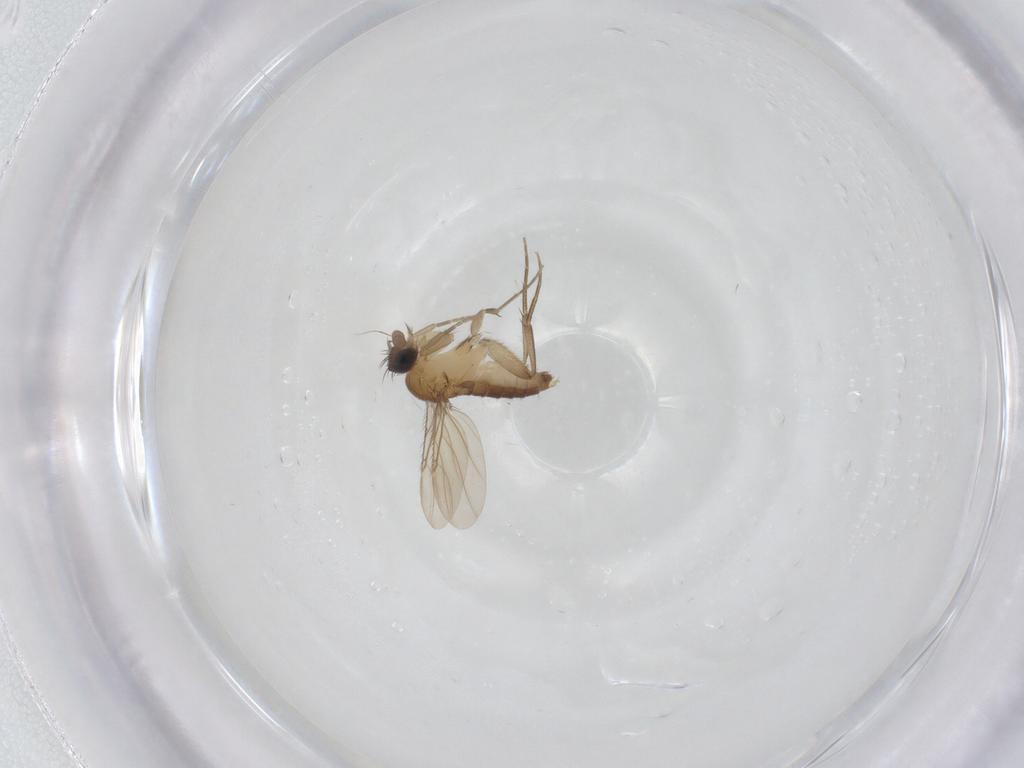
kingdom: Animalia
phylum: Arthropoda
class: Insecta
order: Diptera
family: Phoridae
